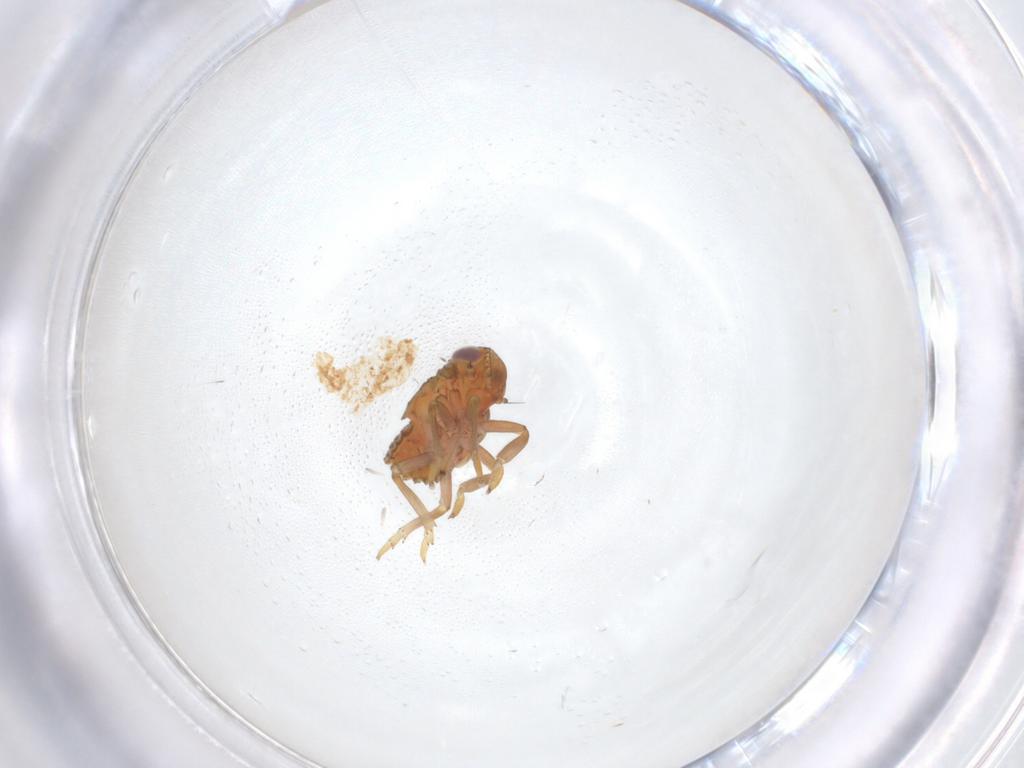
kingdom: Animalia
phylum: Arthropoda
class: Insecta
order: Hemiptera
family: Issidae
